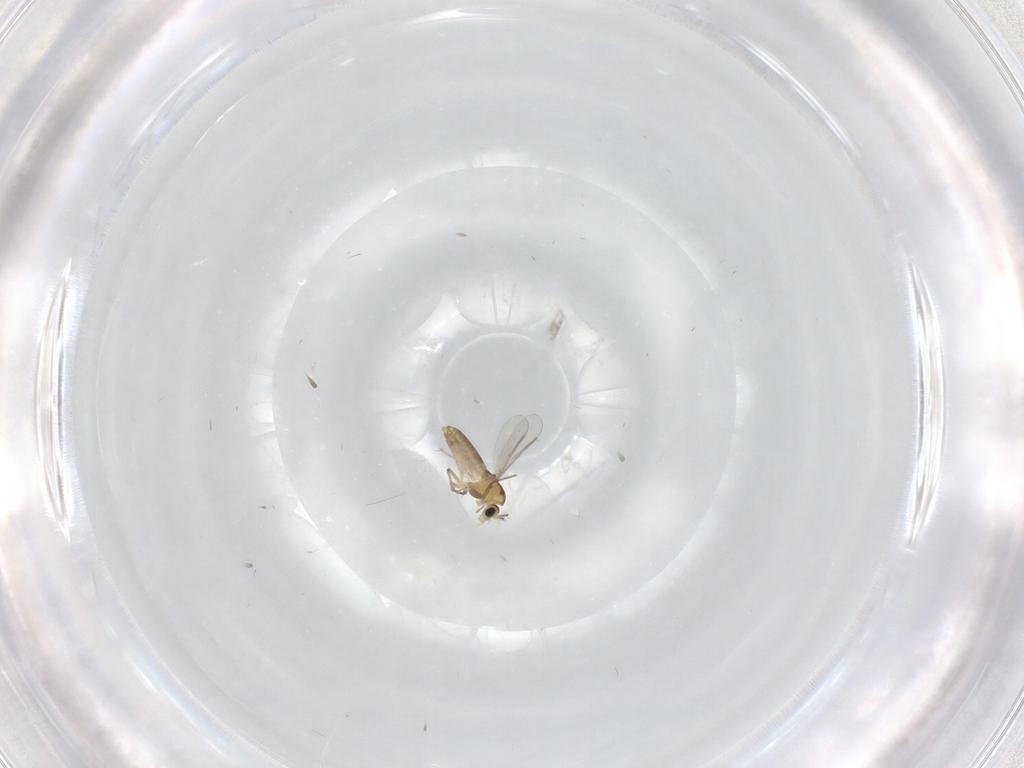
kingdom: Animalia
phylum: Arthropoda
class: Insecta
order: Diptera
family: Chironomidae
